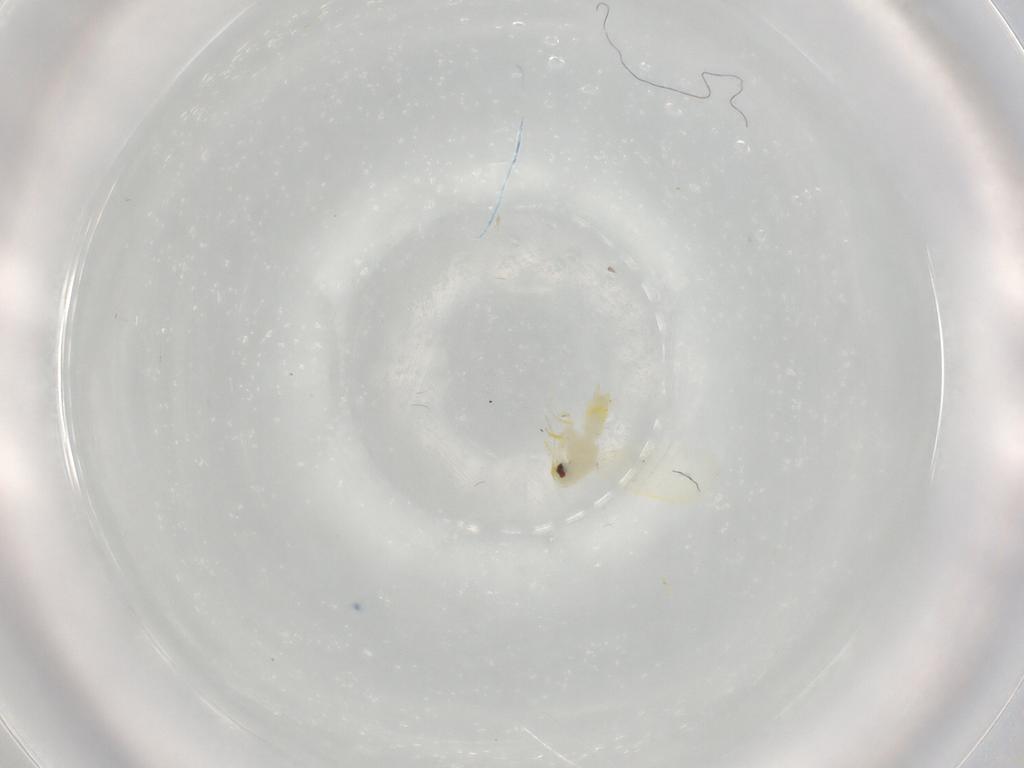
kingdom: Animalia
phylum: Arthropoda
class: Insecta
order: Hemiptera
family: Aleyrodidae
